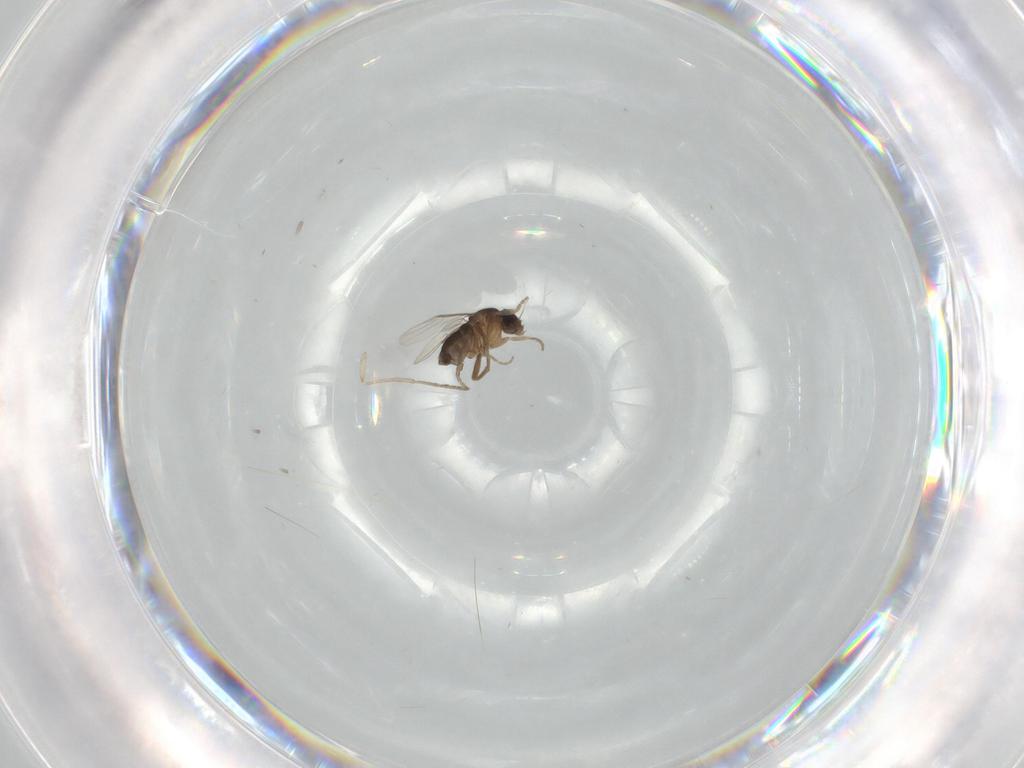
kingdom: Animalia
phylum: Arthropoda
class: Insecta
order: Diptera
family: Phoridae
